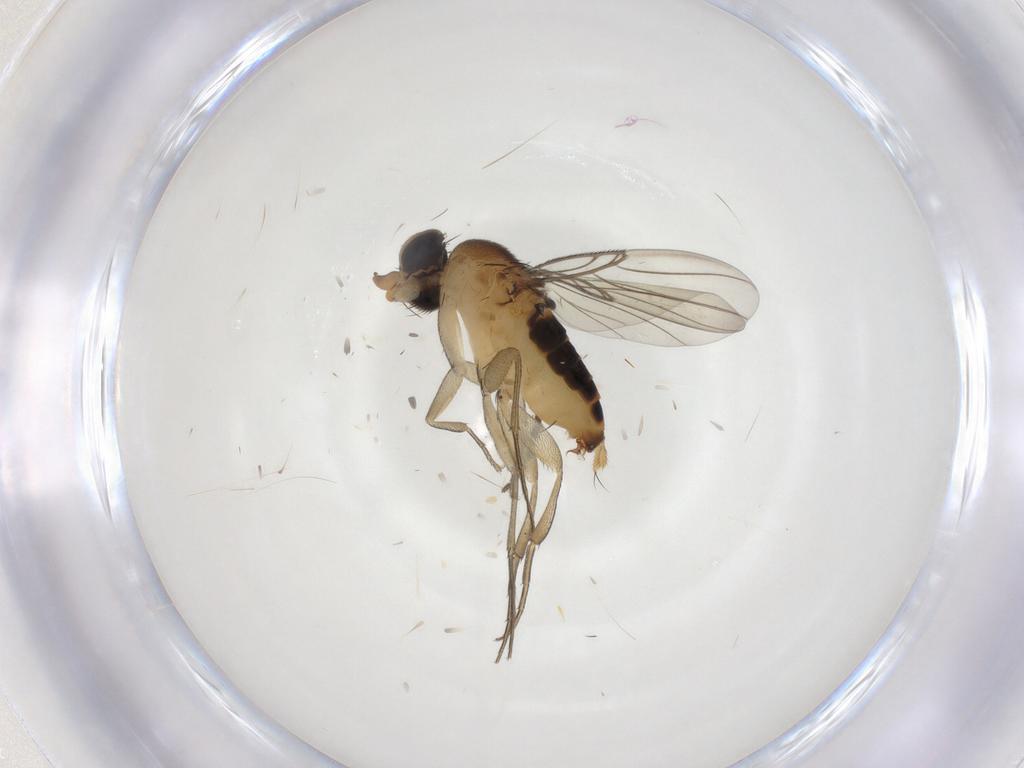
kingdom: Animalia
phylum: Arthropoda
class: Insecta
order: Diptera
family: Phoridae
